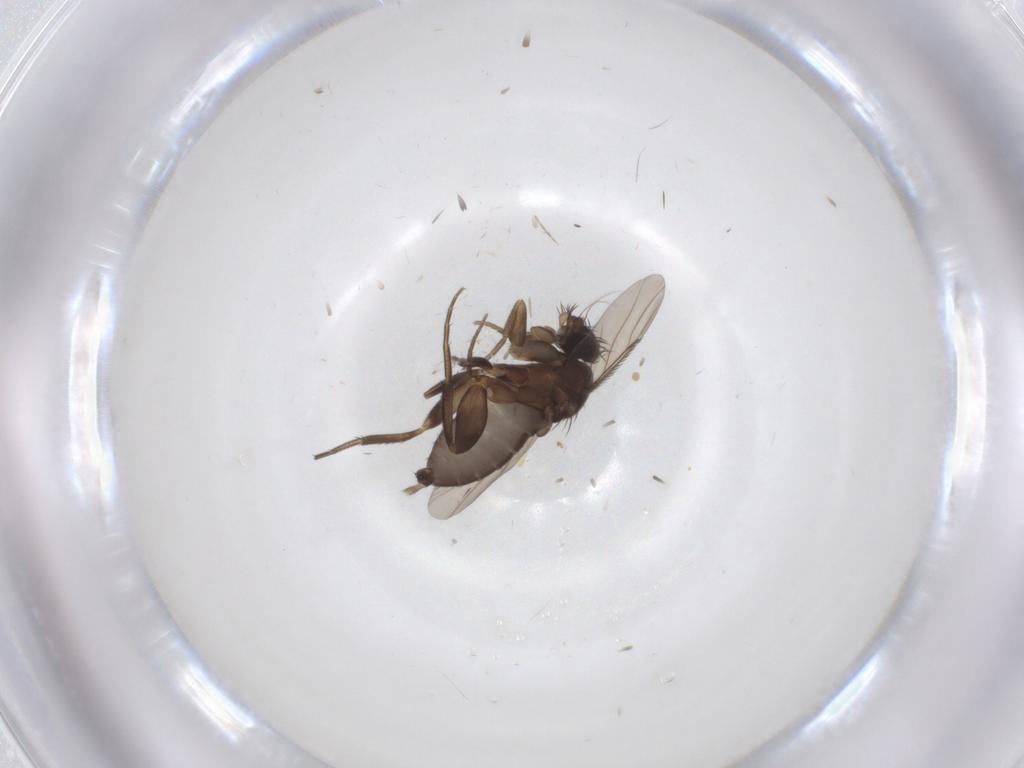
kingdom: Animalia
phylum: Arthropoda
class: Insecta
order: Diptera
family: Phoridae
